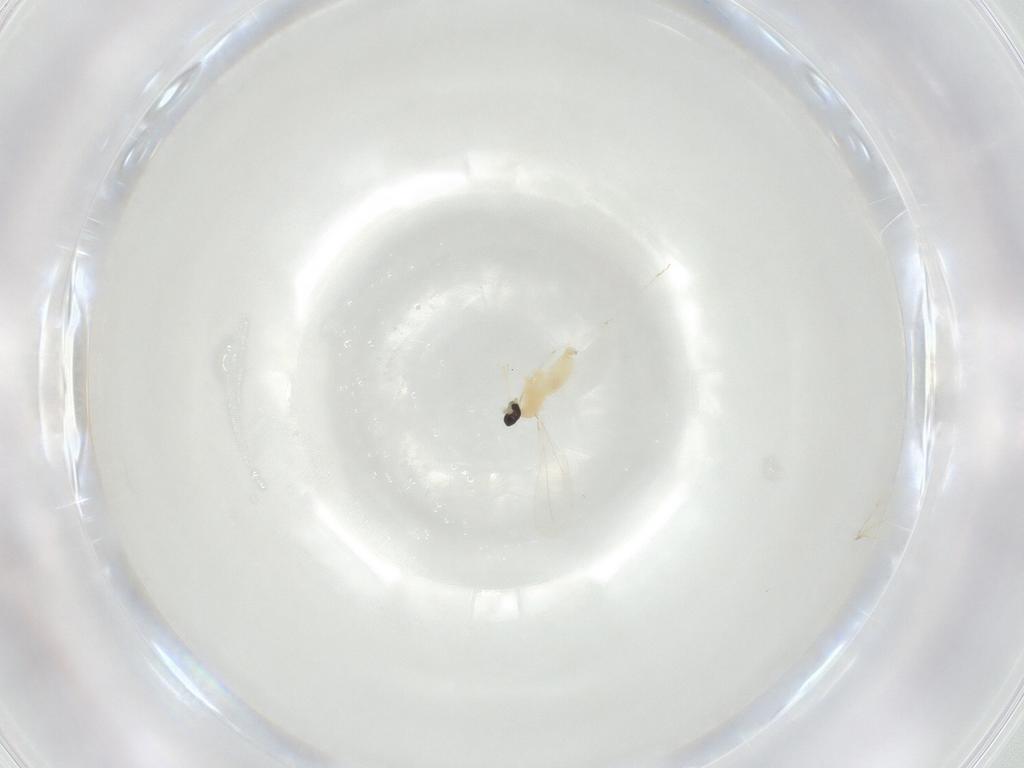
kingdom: Animalia
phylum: Arthropoda
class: Insecta
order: Diptera
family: Cecidomyiidae
